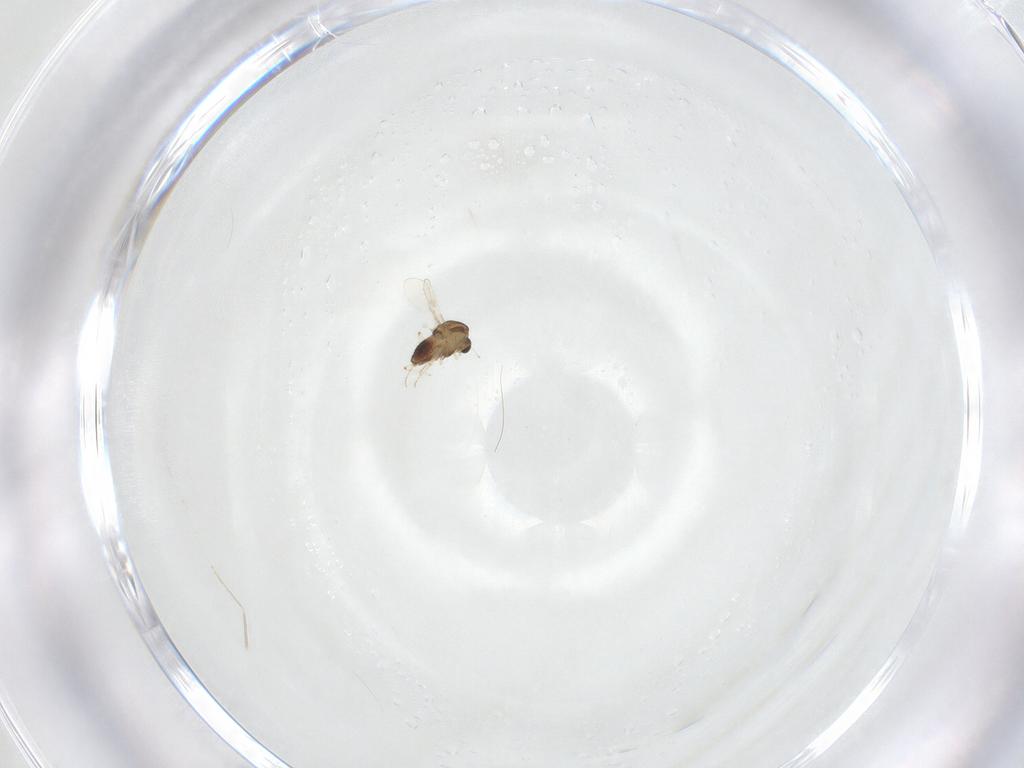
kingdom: Animalia
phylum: Arthropoda
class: Insecta
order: Diptera
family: Chironomidae
